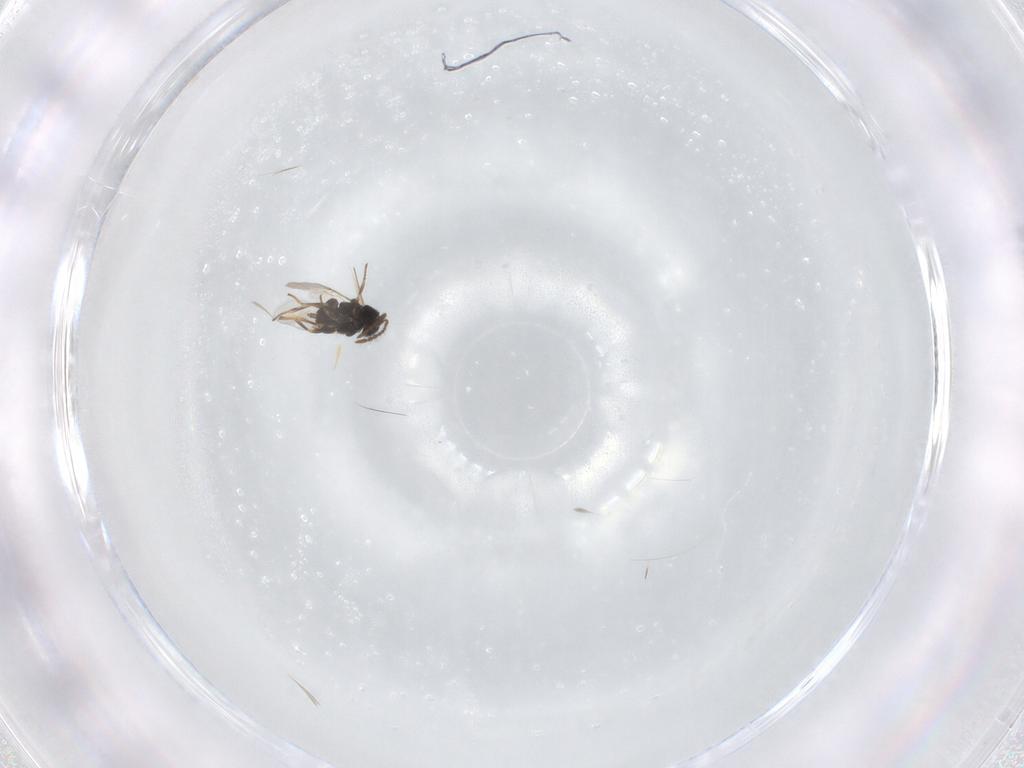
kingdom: Animalia
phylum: Arthropoda
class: Insecta
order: Hymenoptera
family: Encyrtidae
